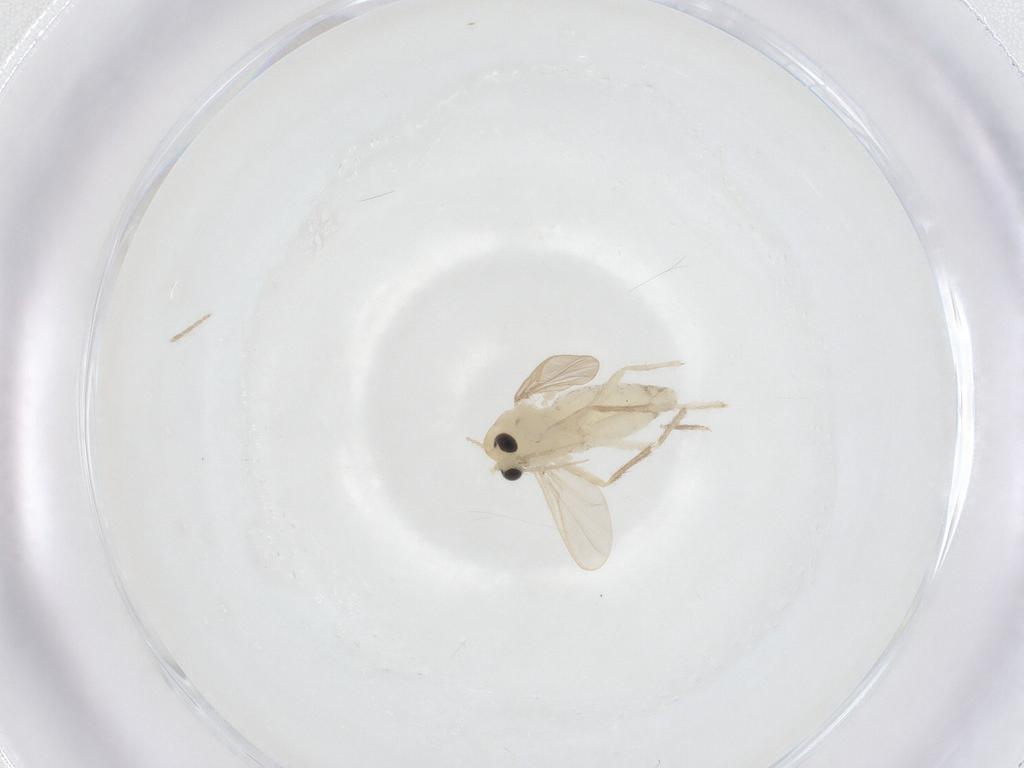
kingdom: Animalia
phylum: Arthropoda
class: Insecta
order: Diptera
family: Chironomidae
